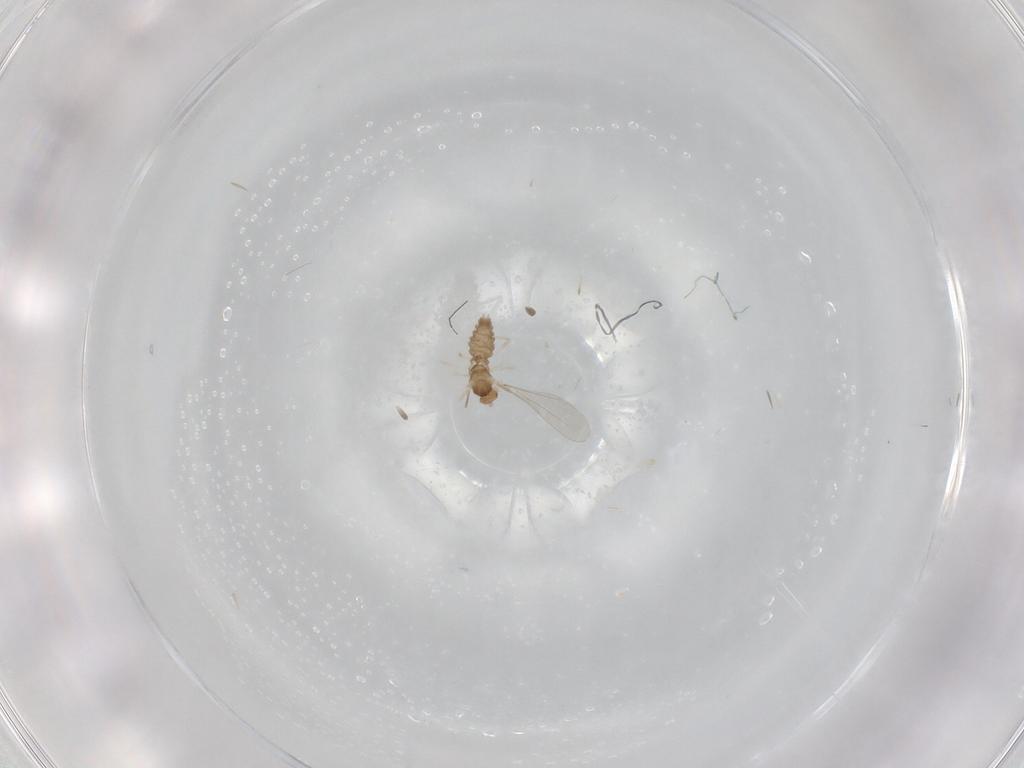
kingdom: Animalia
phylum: Arthropoda
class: Insecta
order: Diptera
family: Cecidomyiidae
